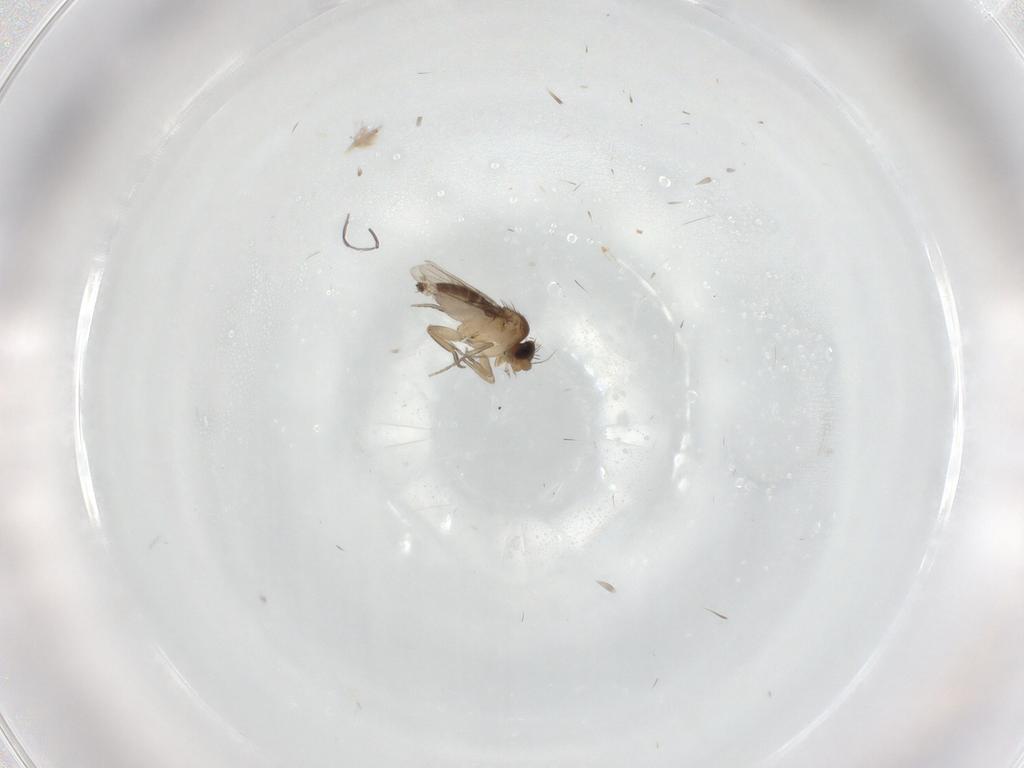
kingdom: Animalia
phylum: Arthropoda
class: Insecta
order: Diptera
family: Phoridae
